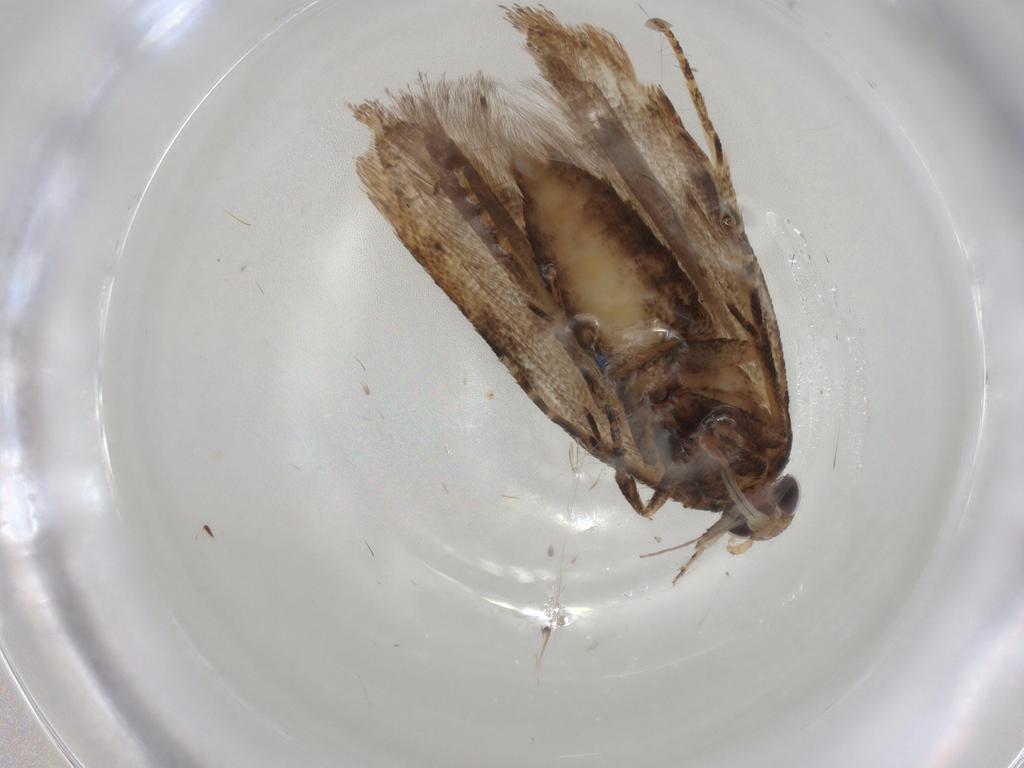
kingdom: Animalia
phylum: Arthropoda
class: Insecta
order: Lepidoptera
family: Gelechiidae
